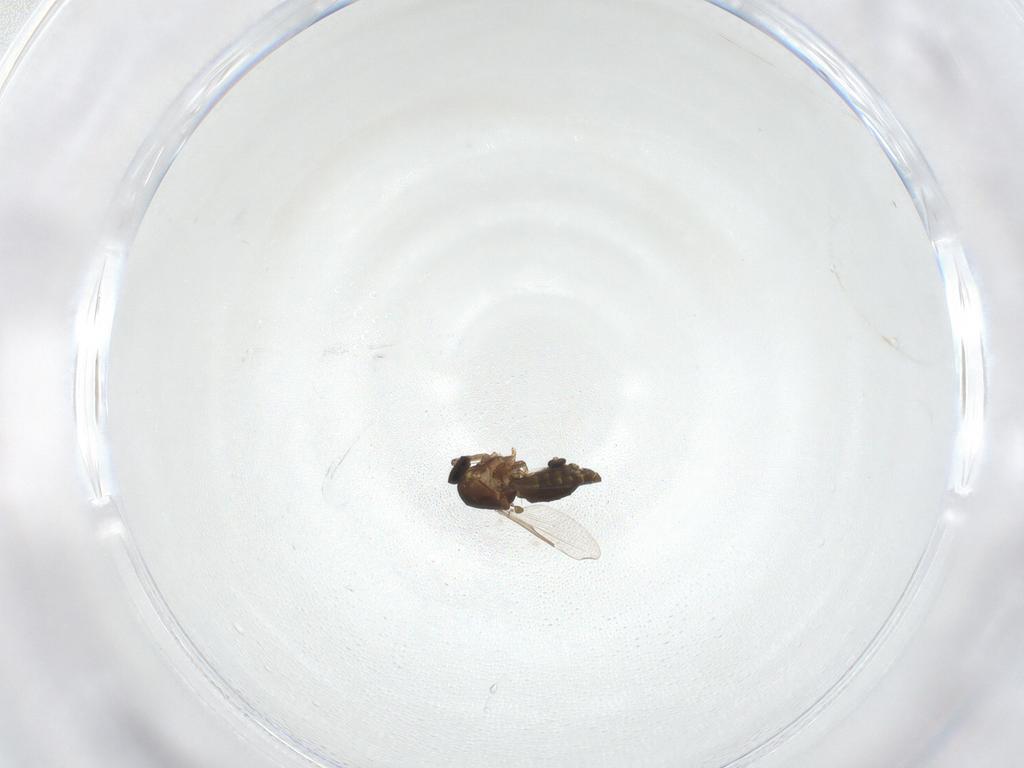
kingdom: Animalia
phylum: Arthropoda
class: Insecta
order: Diptera
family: Cecidomyiidae
